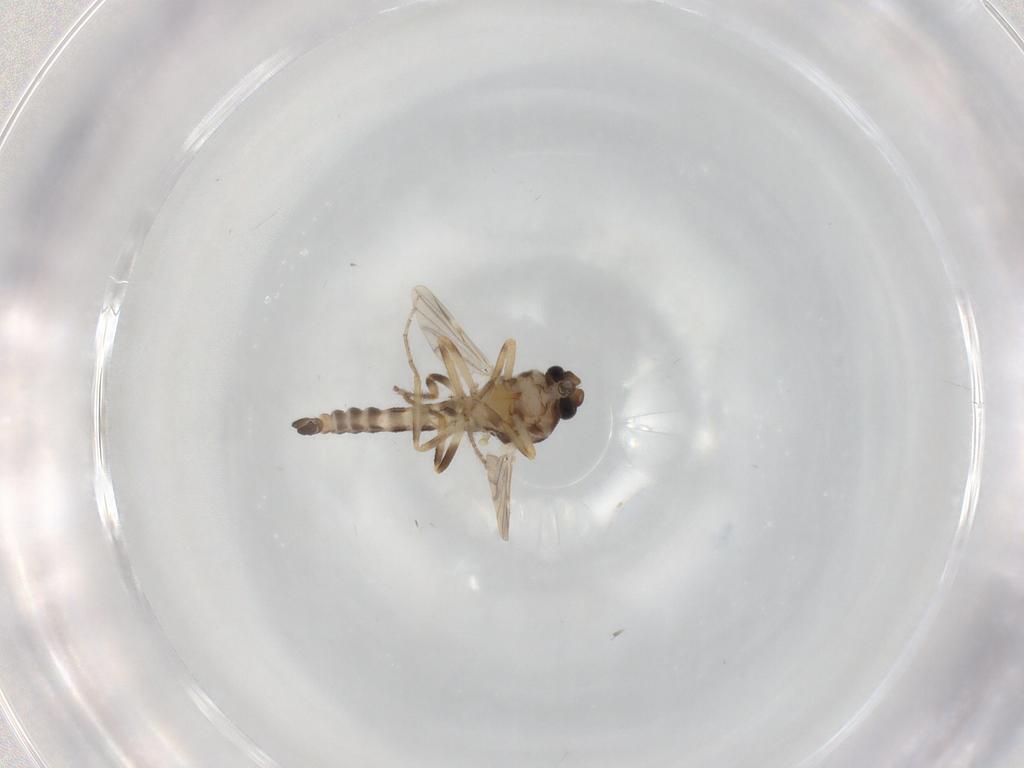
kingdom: Animalia
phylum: Arthropoda
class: Insecta
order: Diptera
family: Ceratopogonidae
